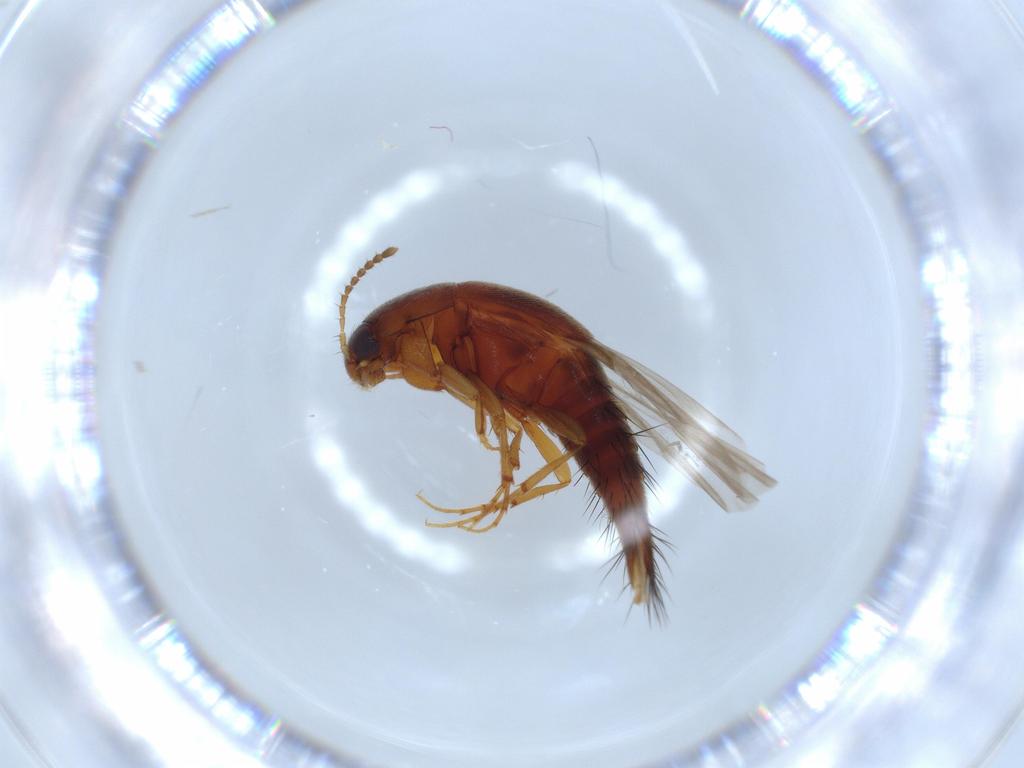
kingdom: Animalia
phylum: Arthropoda
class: Insecta
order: Coleoptera
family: Staphylinidae
